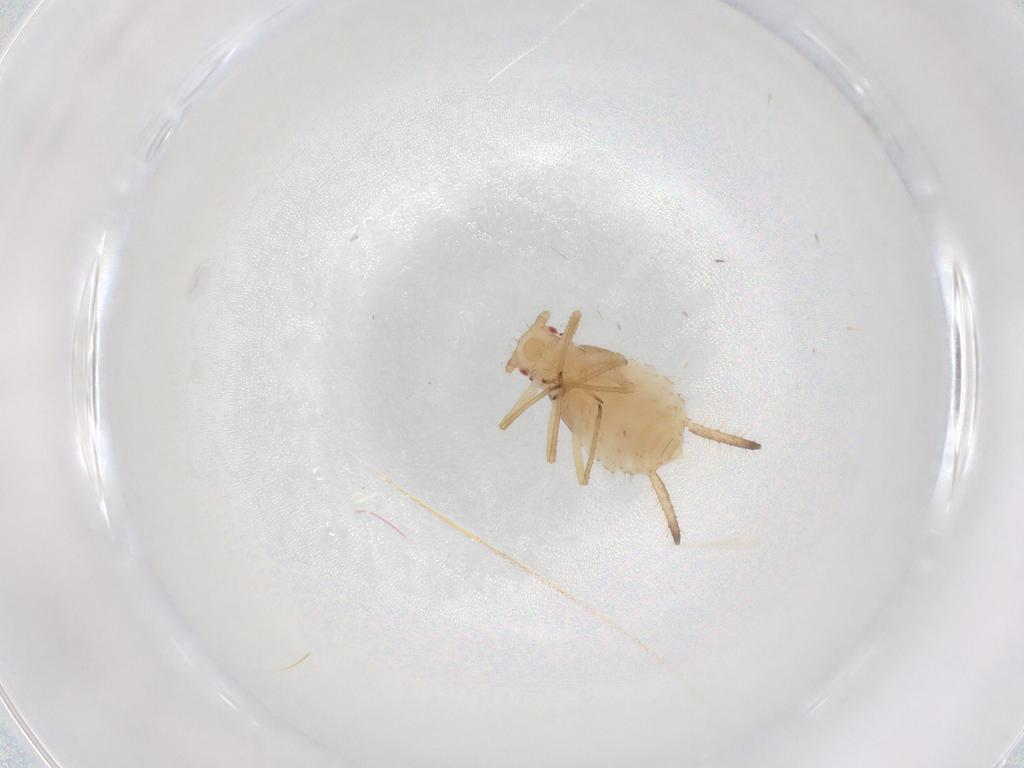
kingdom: Animalia
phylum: Arthropoda
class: Insecta
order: Hemiptera
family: Aphididae
